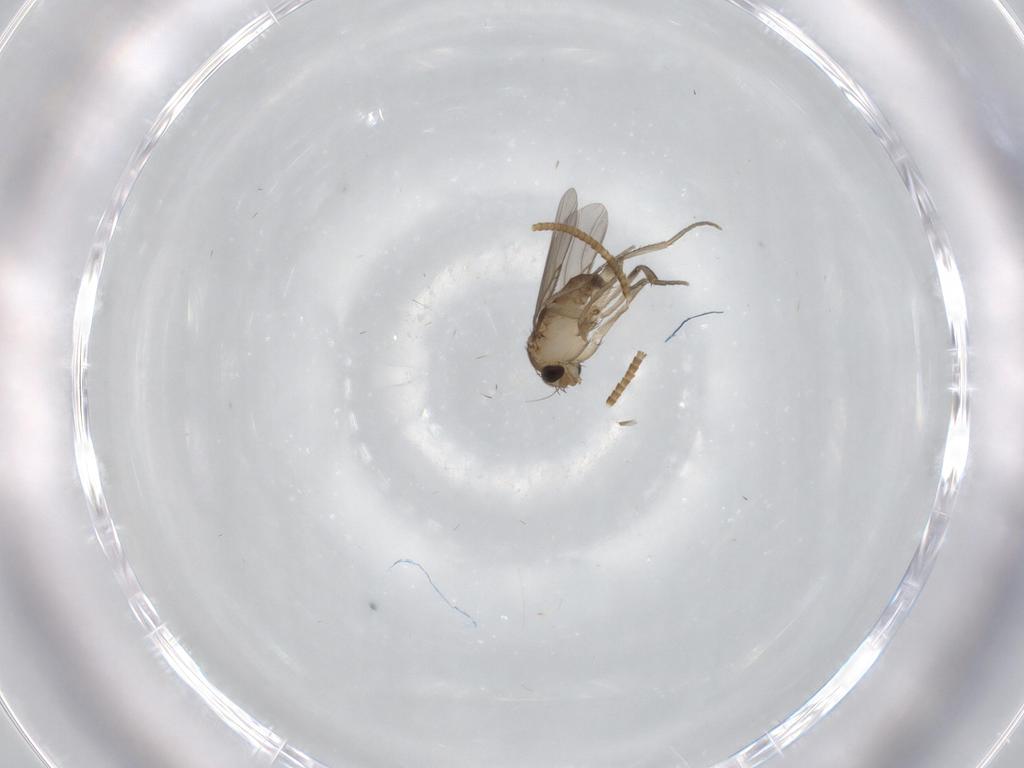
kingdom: Animalia
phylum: Arthropoda
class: Insecta
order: Diptera
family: Phoridae
